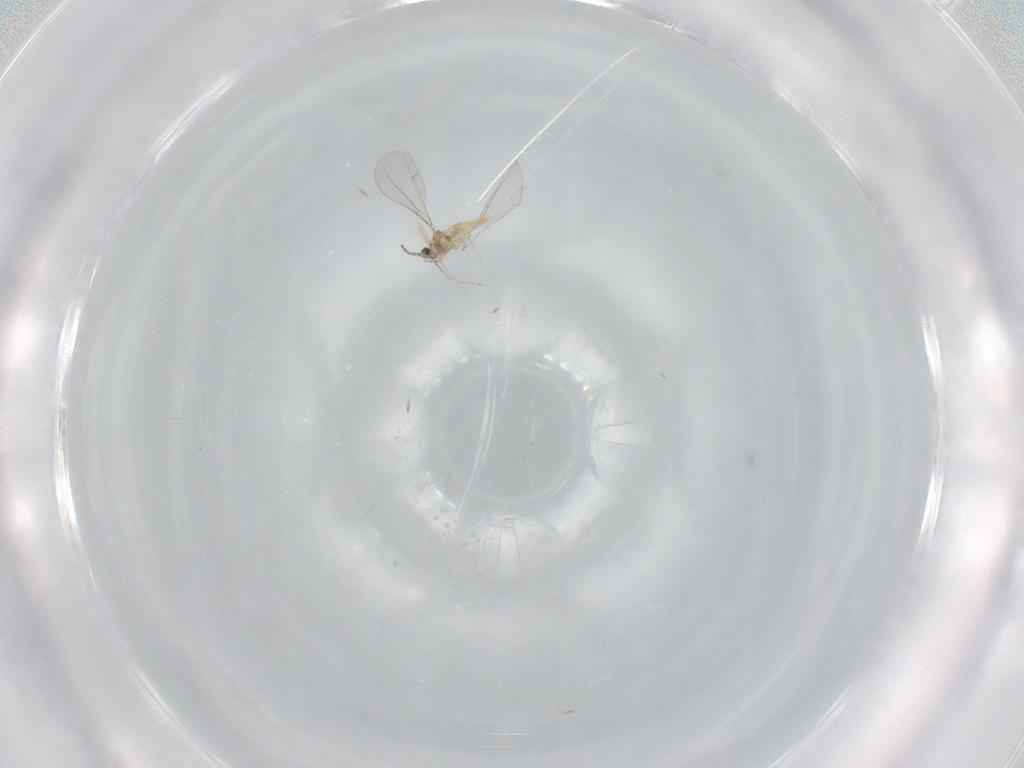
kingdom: Animalia
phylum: Arthropoda
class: Insecta
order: Diptera
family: Cecidomyiidae
